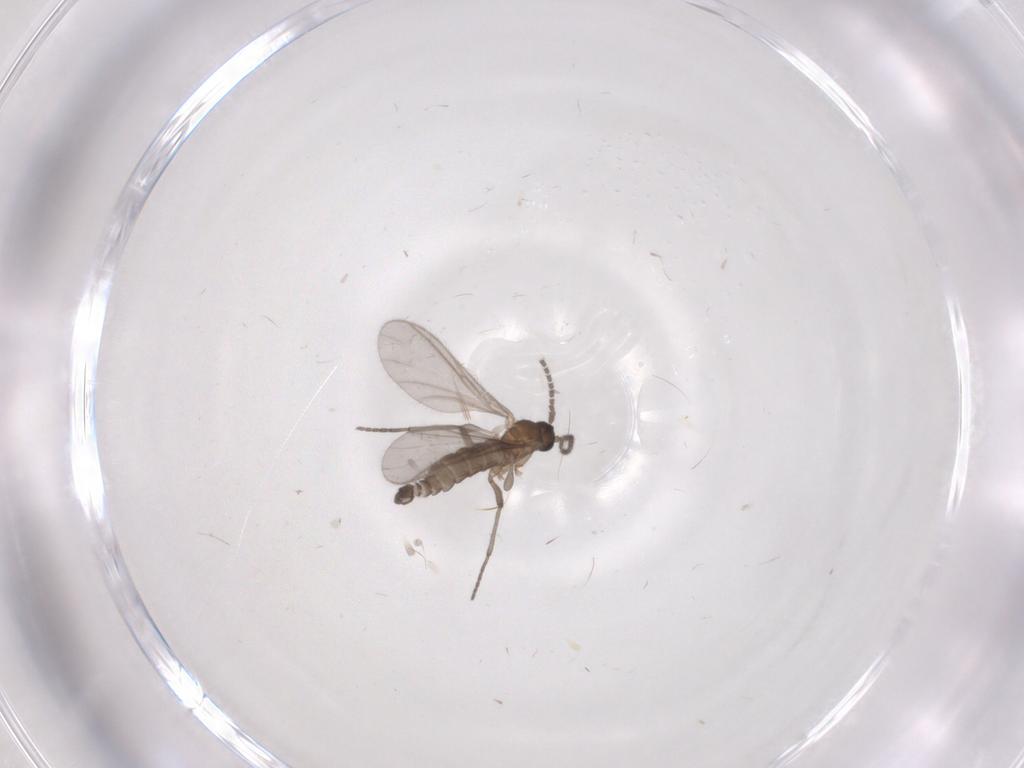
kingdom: Animalia
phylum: Arthropoda
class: Insecta
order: Diptera
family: Sciaridae
